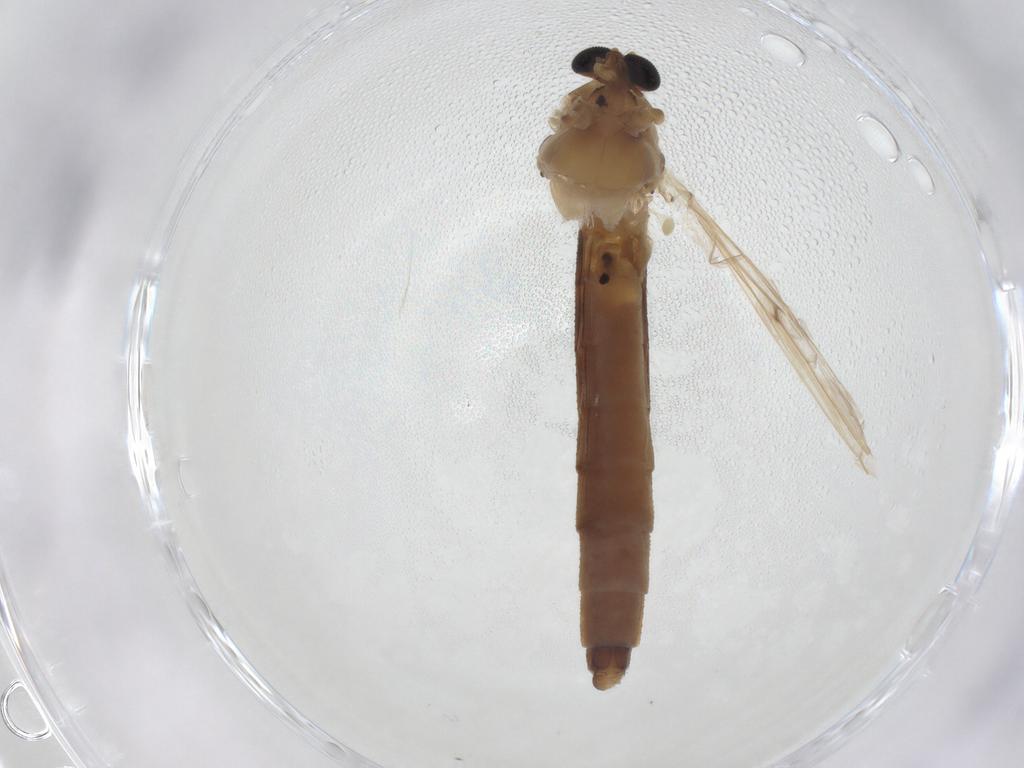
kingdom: Animalia
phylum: Arthropoda
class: Insecta
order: Diptera
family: Chironomidae
